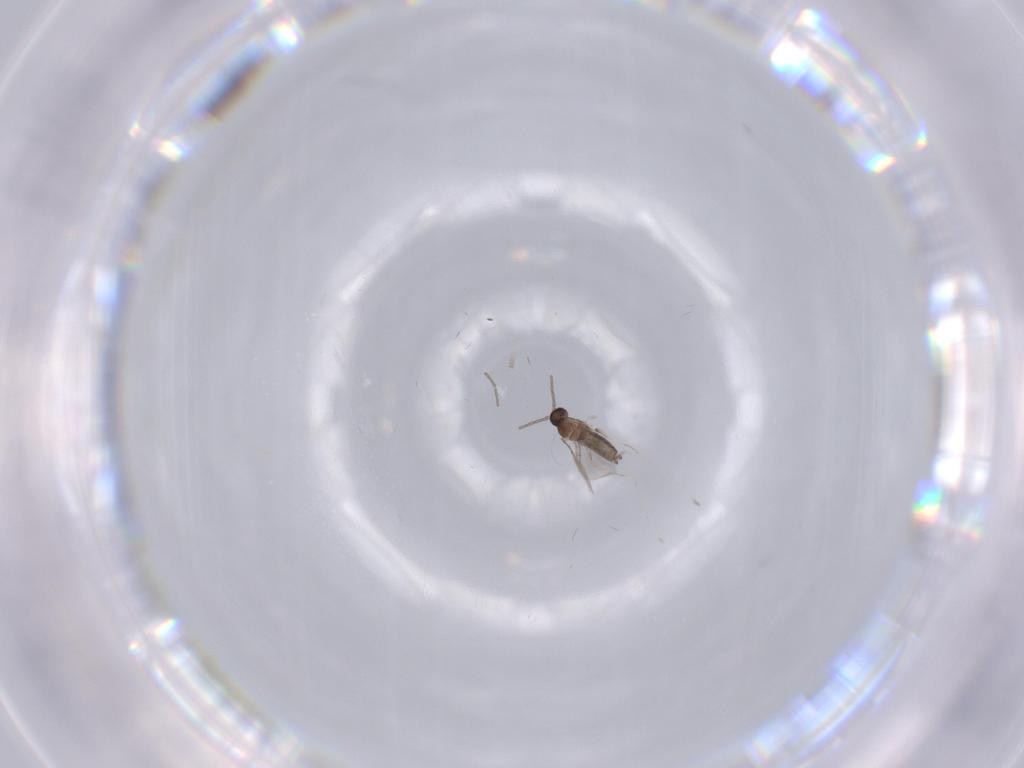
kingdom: Animalia
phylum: Arthropoda
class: Insecta
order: Diptera
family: Cecidomyiidae
